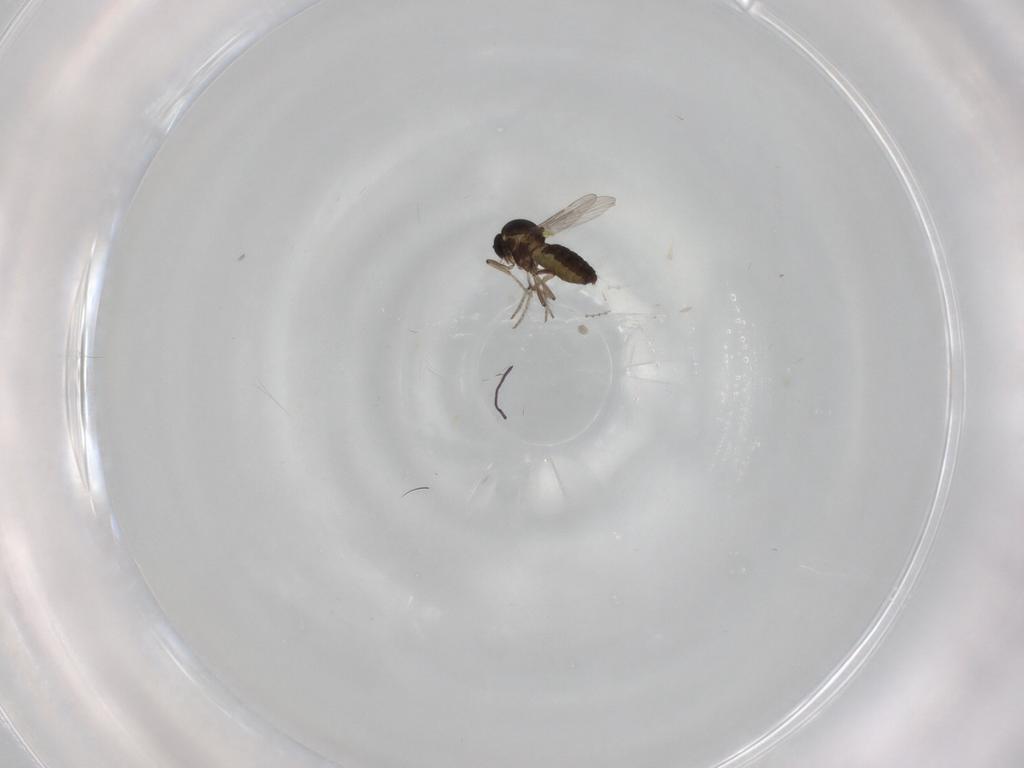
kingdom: Animalia
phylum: Arthropoda
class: Insecta
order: Diptera
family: Ceratopogonidae
